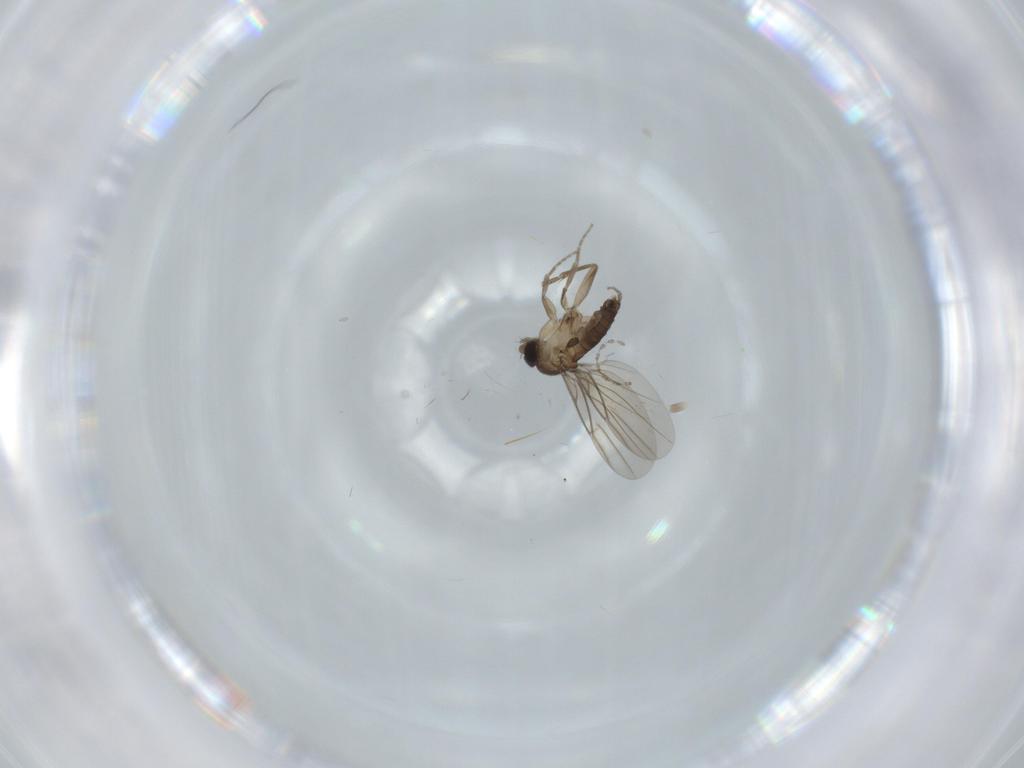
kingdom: Animalia
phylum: Arthropoda
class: Insecta
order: Diptera
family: Phoridae
